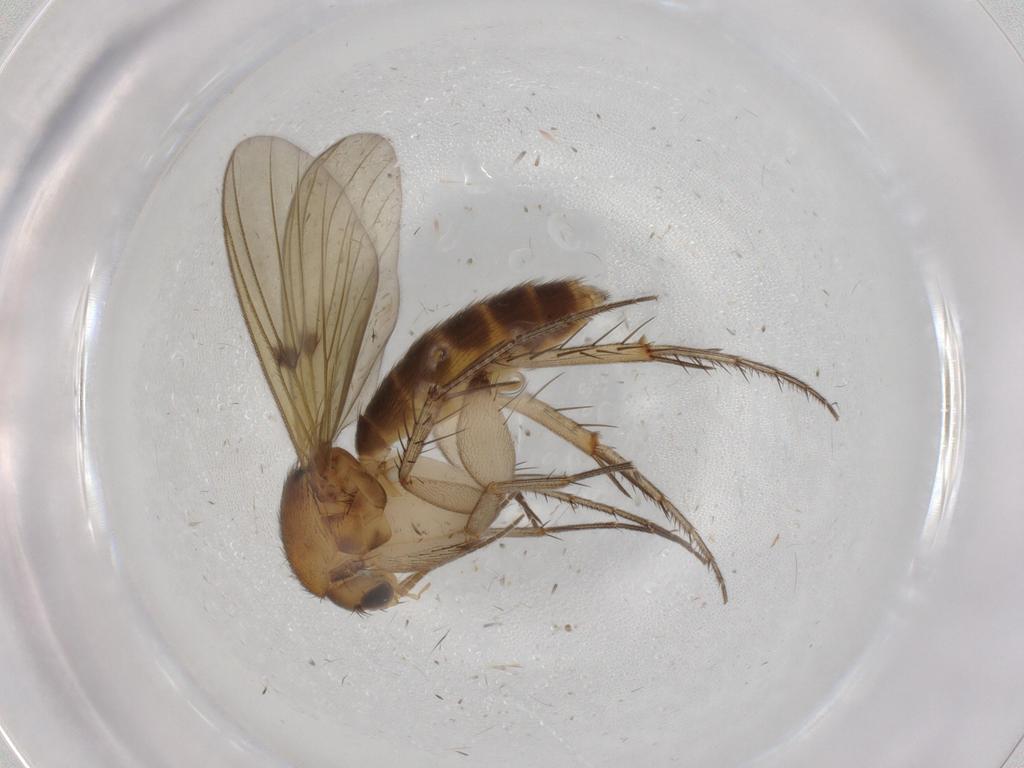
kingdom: Animalia
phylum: Arthropoda
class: Insecta
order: Diptera
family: Mycetophilidae
